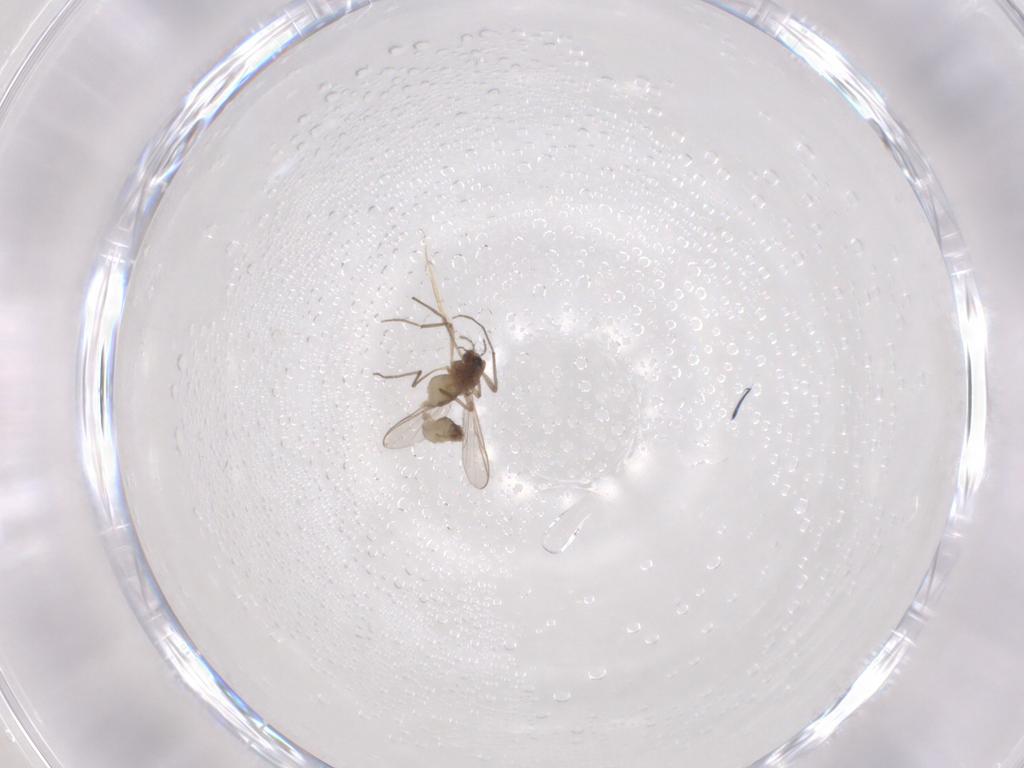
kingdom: Animalia
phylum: Arthropoda
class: Insecta
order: Diptera
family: Chironomidae
